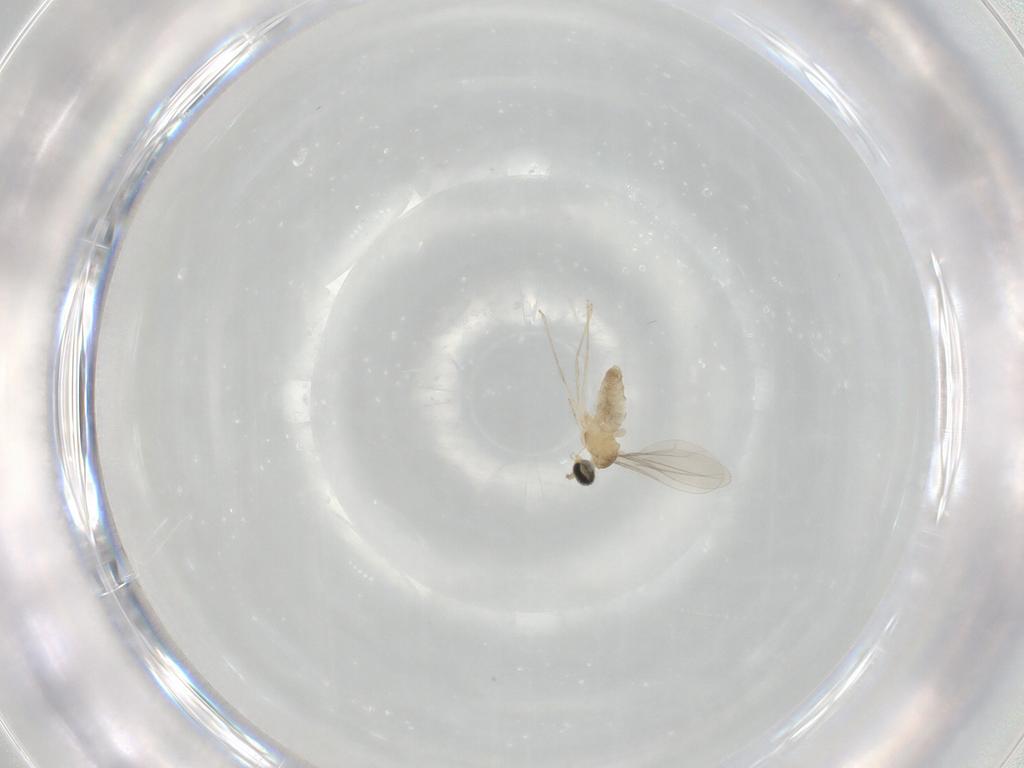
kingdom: Animalia
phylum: Arthropoda
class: Insecta
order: Diptera
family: Cecidomyiidae
